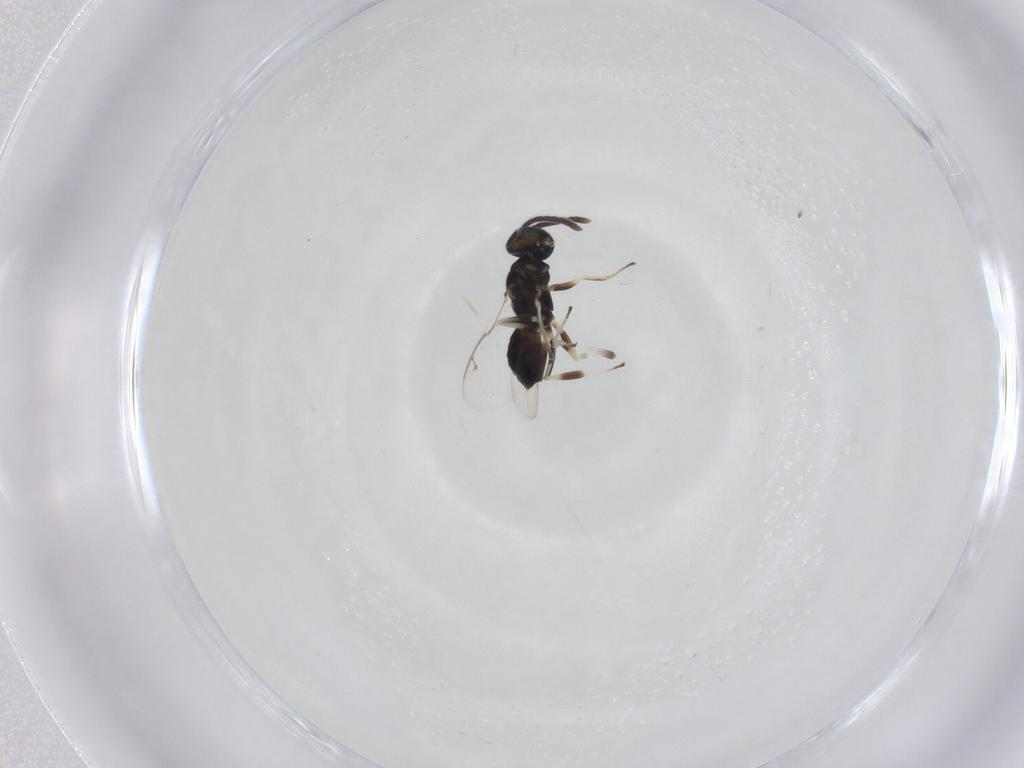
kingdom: Animalia
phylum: Arthropoda
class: Insecta
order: Hymenoptera
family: Eupelmidae
